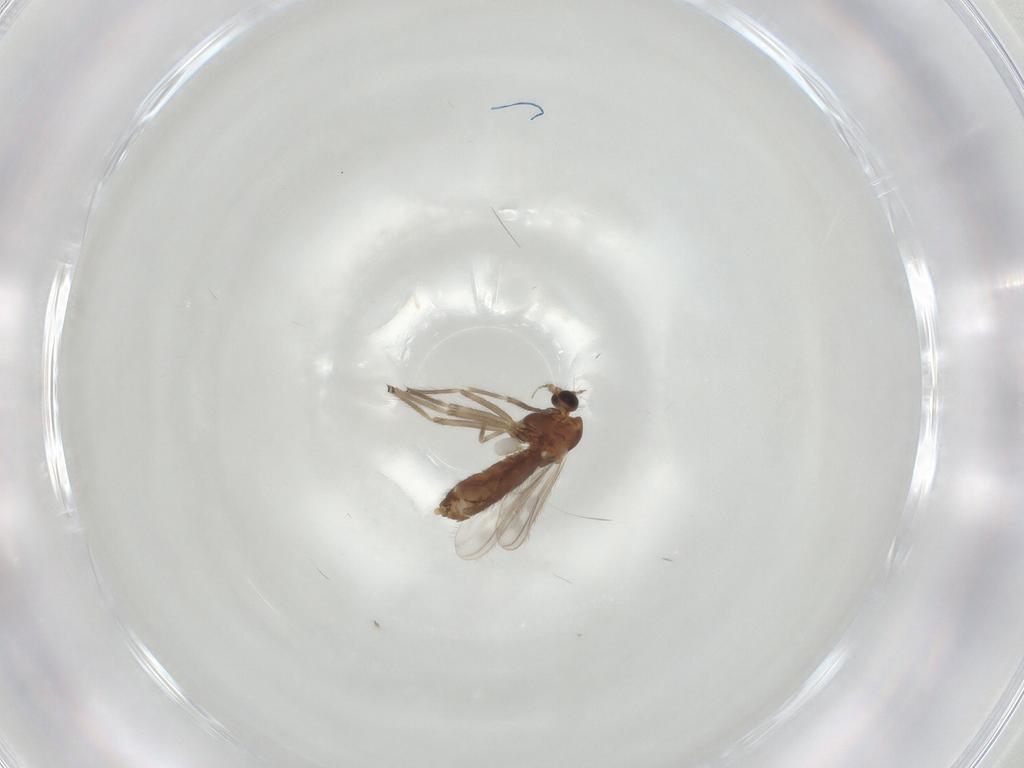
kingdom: Animalia
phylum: Arthropoda
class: Insecta
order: Diptera
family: Chironomidae
